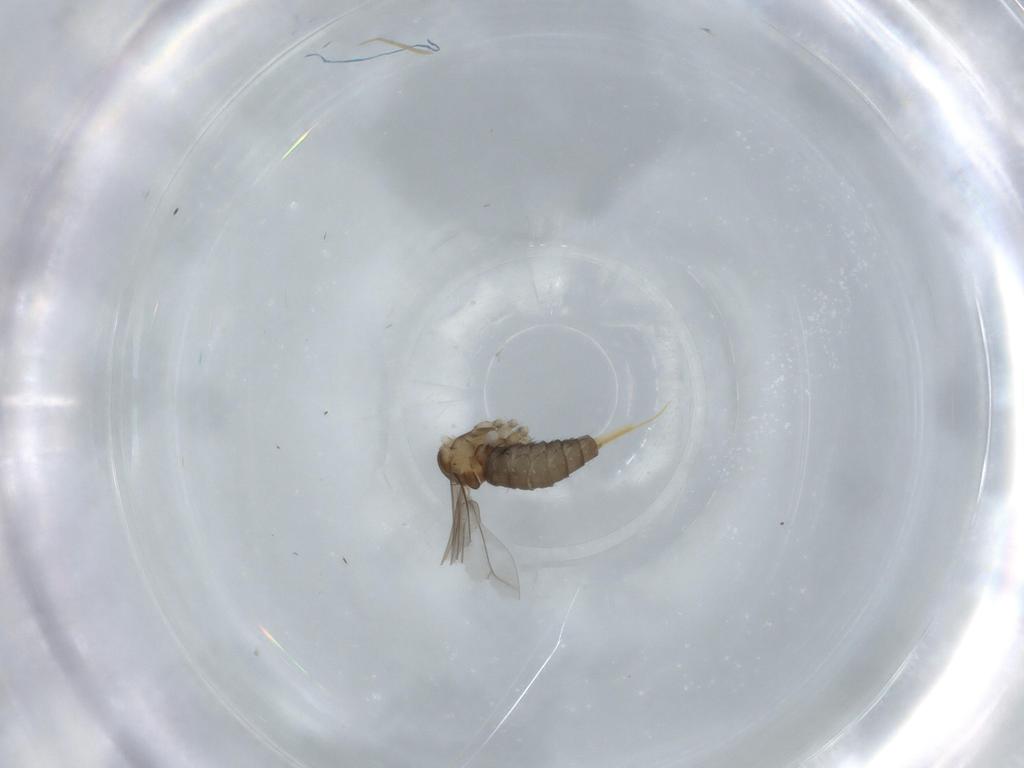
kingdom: Animalia
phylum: Arthropoda
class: Insecta
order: Diptera
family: Cecidomyiidae
